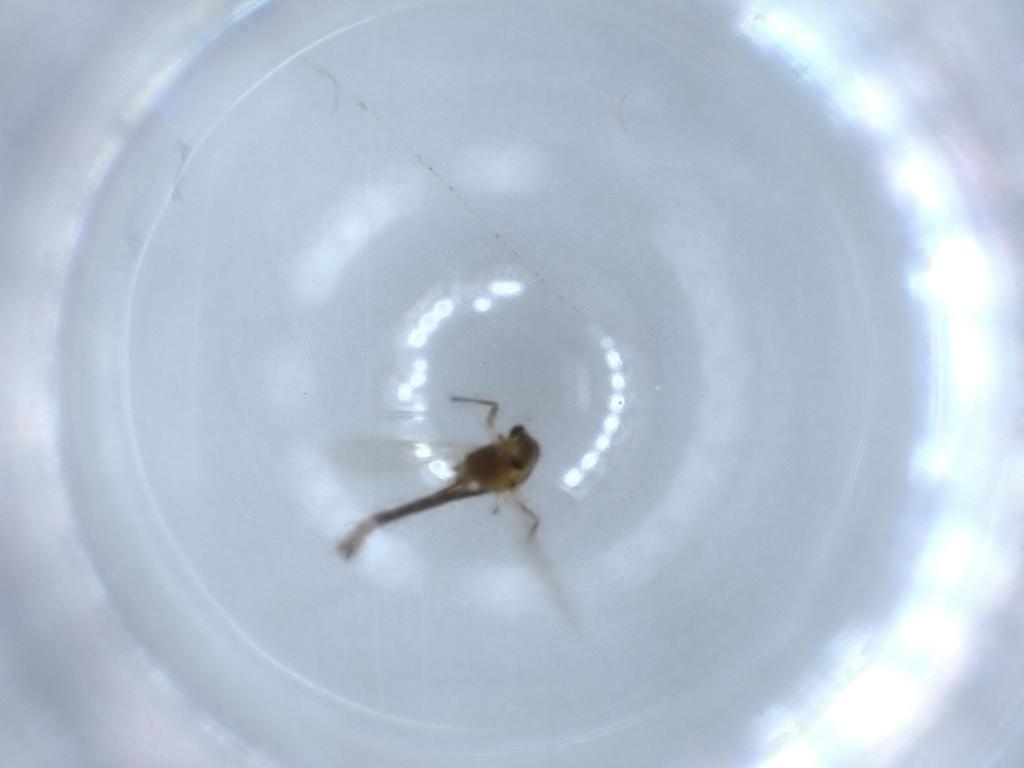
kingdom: Animalia
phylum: Arthropoda
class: Insecta
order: Diptera
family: Chironomidae
